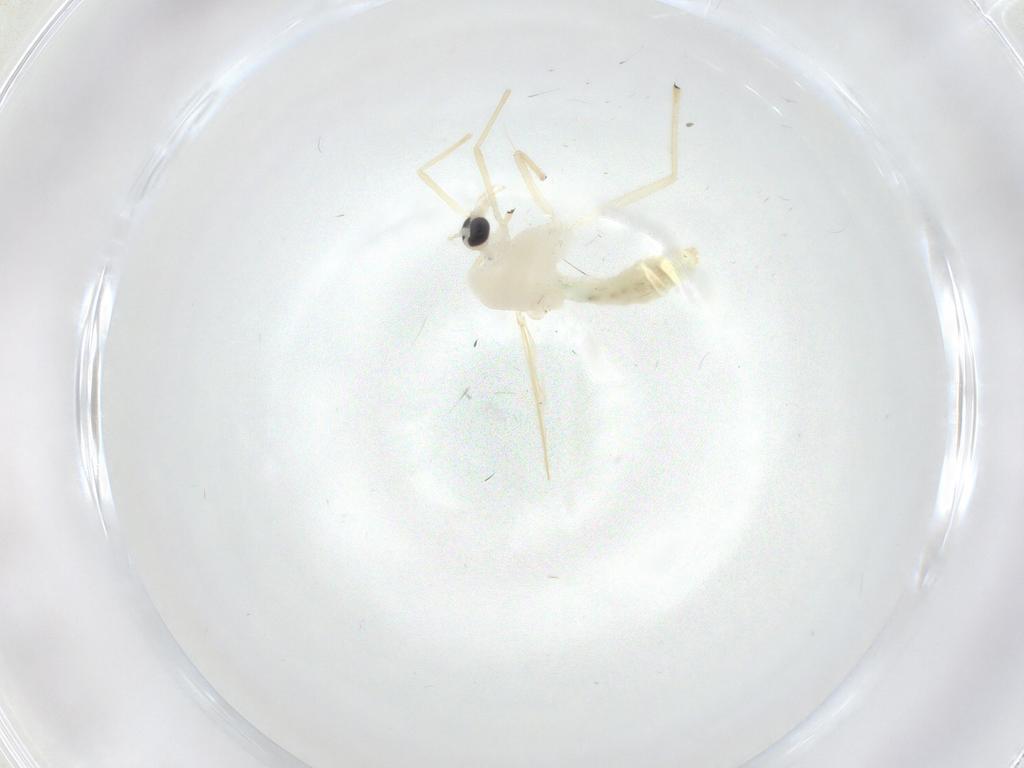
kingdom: Animalia
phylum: Arthropoda
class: Insecta
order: Diptera
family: Chironomidae
